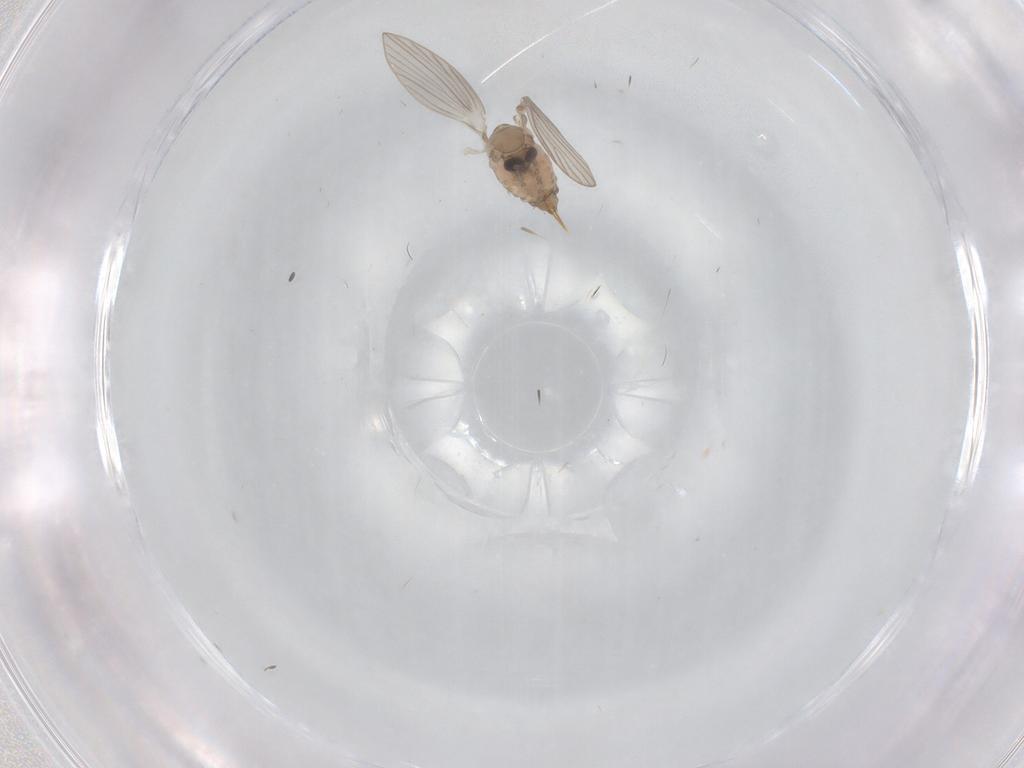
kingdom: Animalia
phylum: Arthropoda
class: Insecta
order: Diptera
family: Psychodidae
